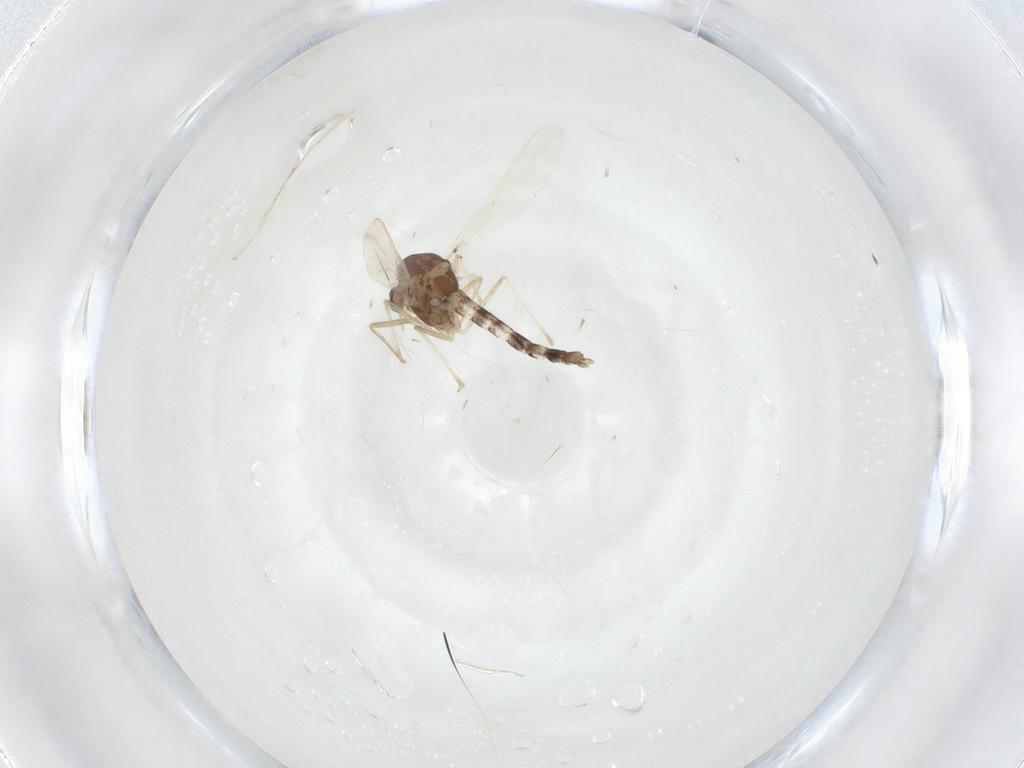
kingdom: Animalia
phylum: Arthropoda
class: Insecta
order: Diptera
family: Chironomidae
